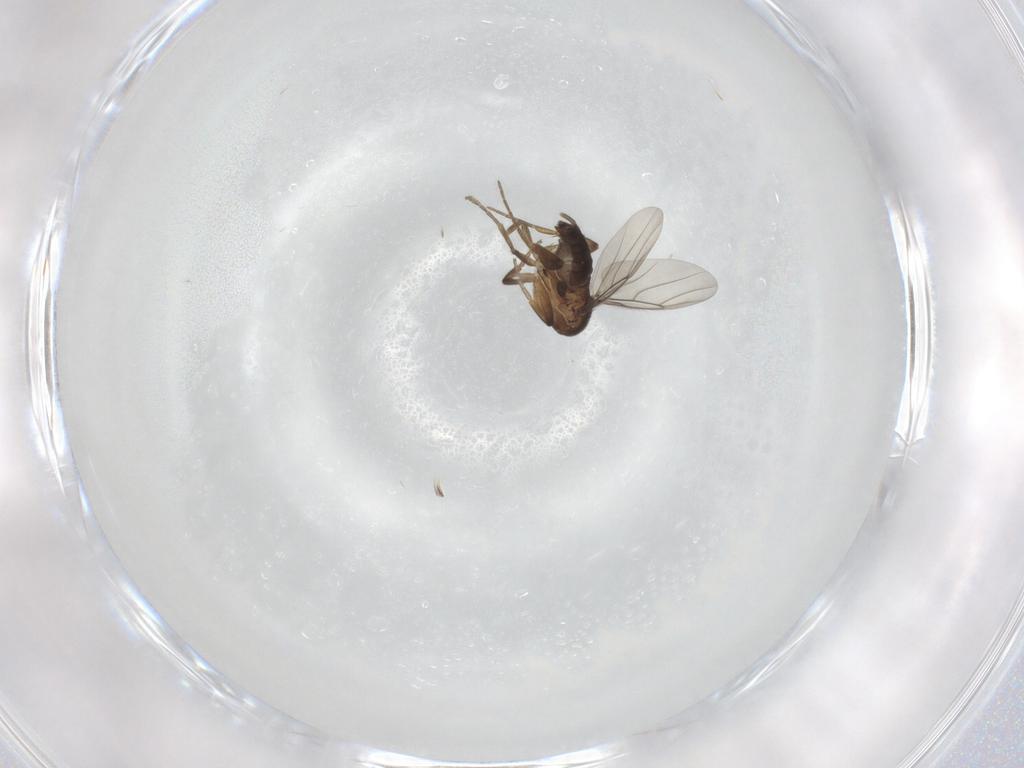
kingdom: Animalia
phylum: Arthropoda
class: Insecta
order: Diptera
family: Phoridae
